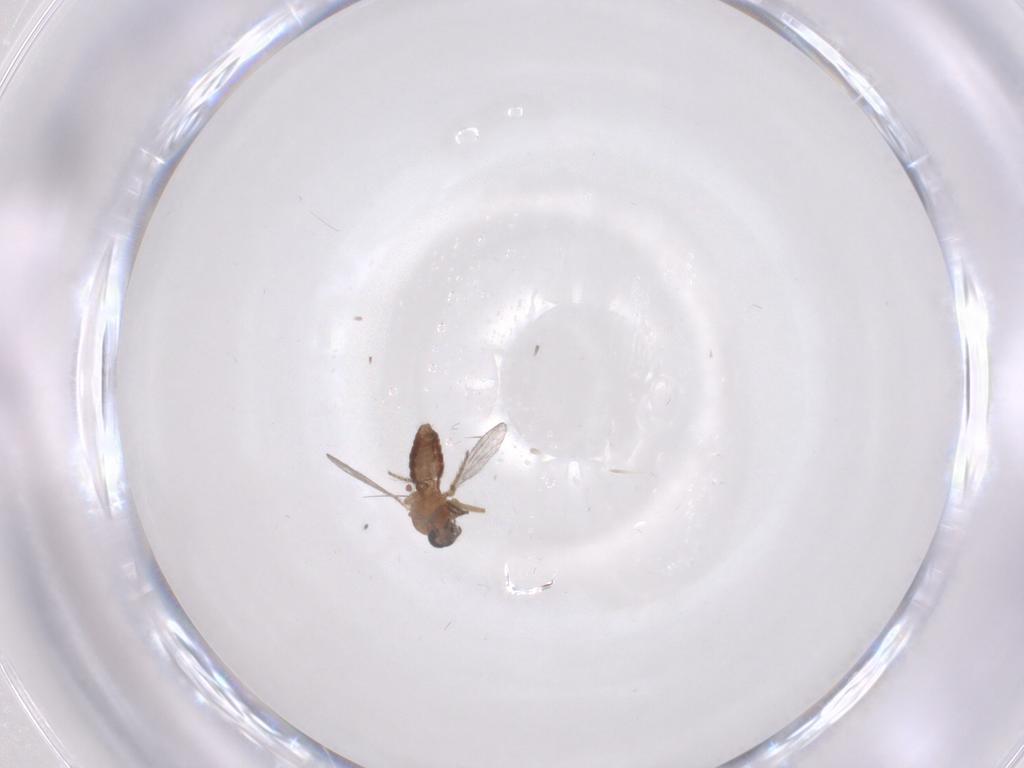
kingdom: Animalia
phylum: Arthropoda
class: Insecta
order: Diptera
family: Ceratopogonidae
